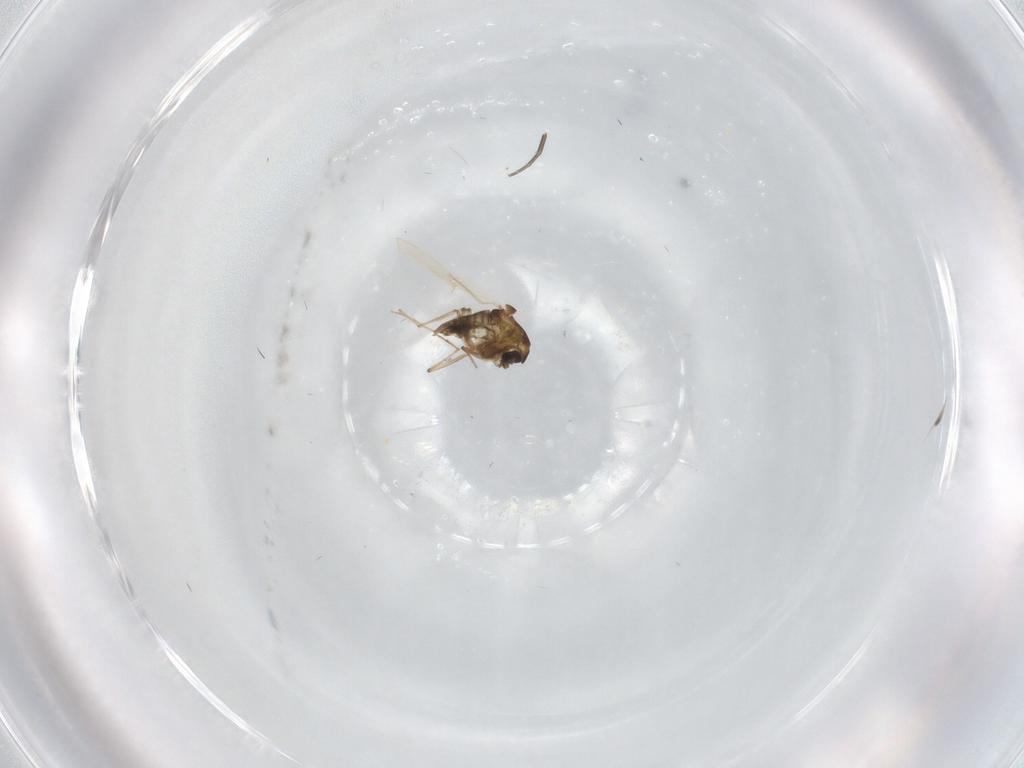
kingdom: Animalia
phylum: Arthropoda
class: Insecta
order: Diptera
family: Chironomidae
